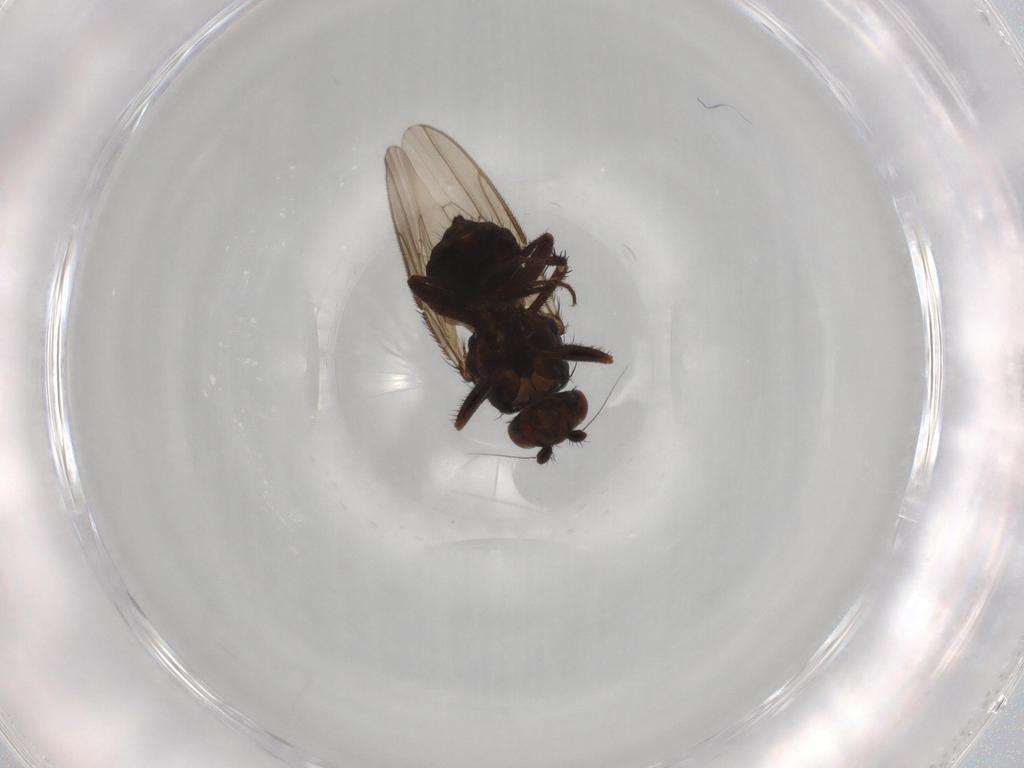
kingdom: Animalia
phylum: Arthropoda
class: Insecta
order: Diptera
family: Sphaeroceridae
